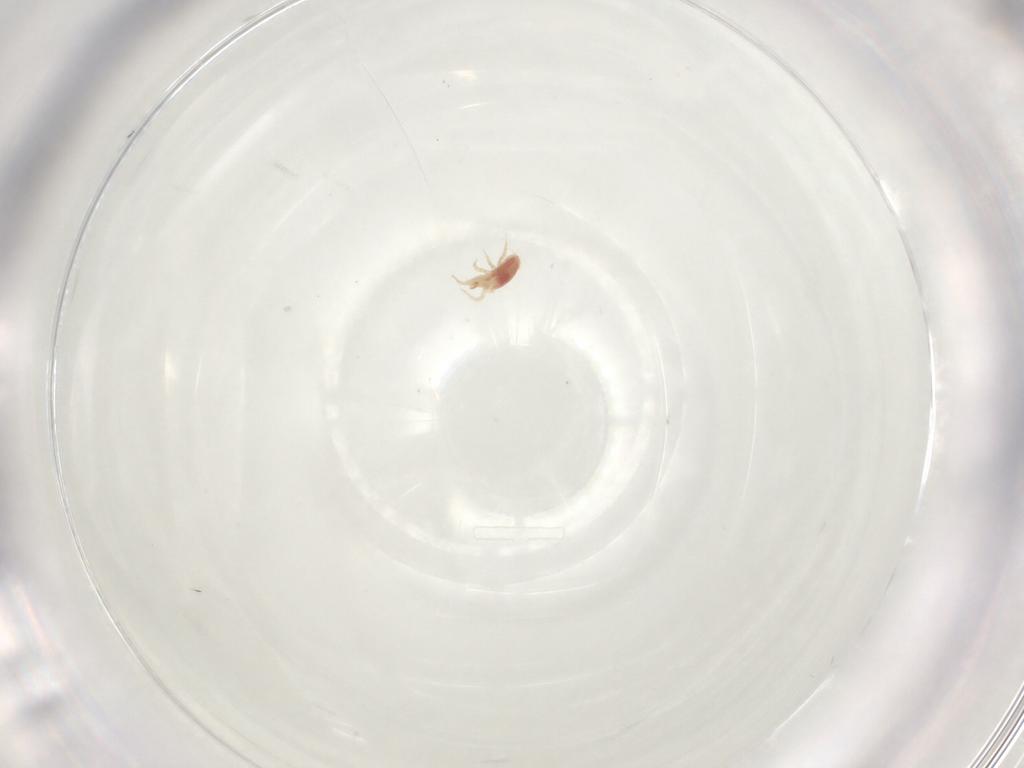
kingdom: Animalia
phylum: Arthropoda
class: Arachnida
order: Mesostigmata
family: Phytoseiidae
